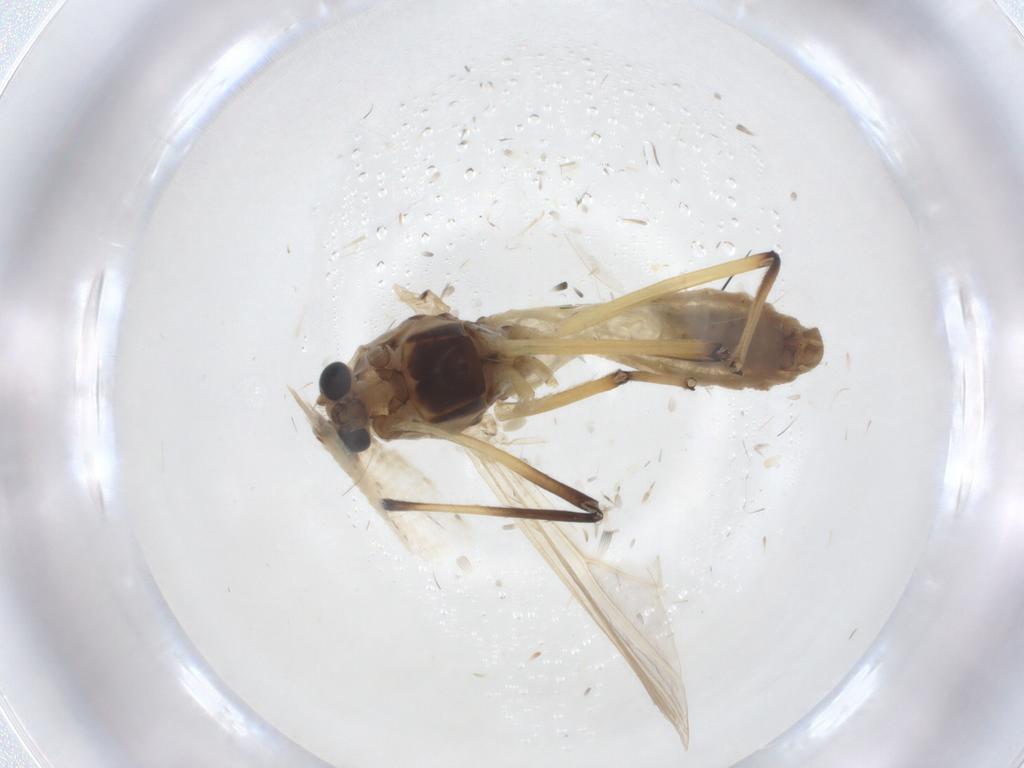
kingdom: Animalia
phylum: Arthropoda
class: Insecta
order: Diptera
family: Chironomidae
